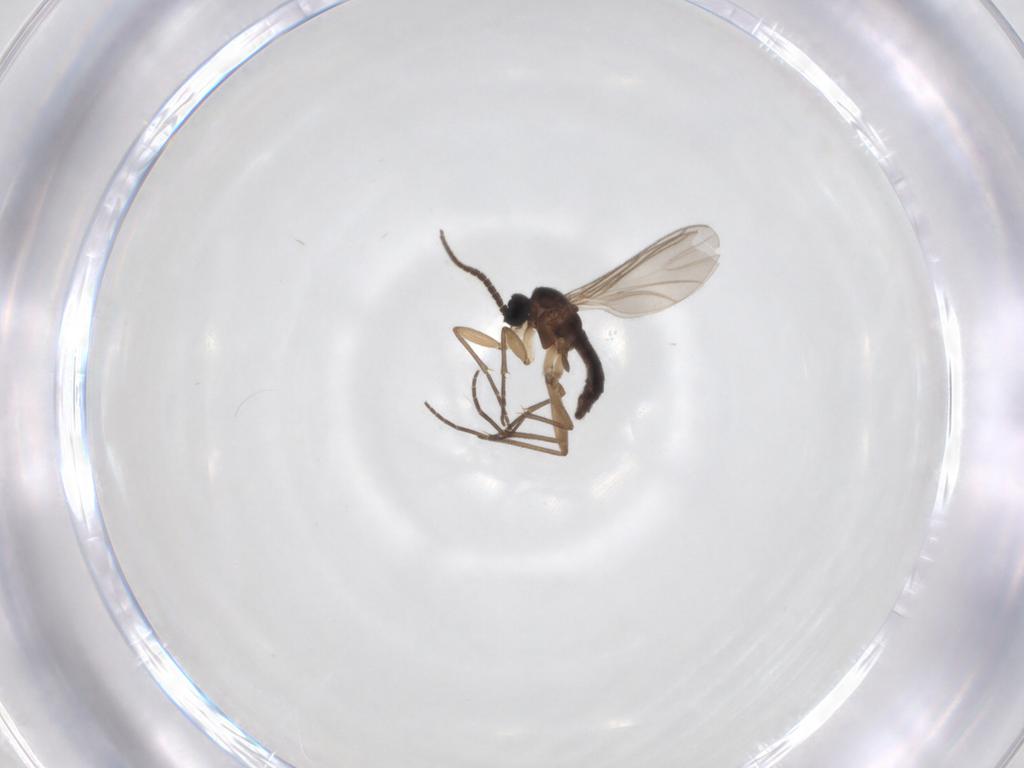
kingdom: Animalia
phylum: Arthropoda
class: Insecta
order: Diptera
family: Sciaridae
